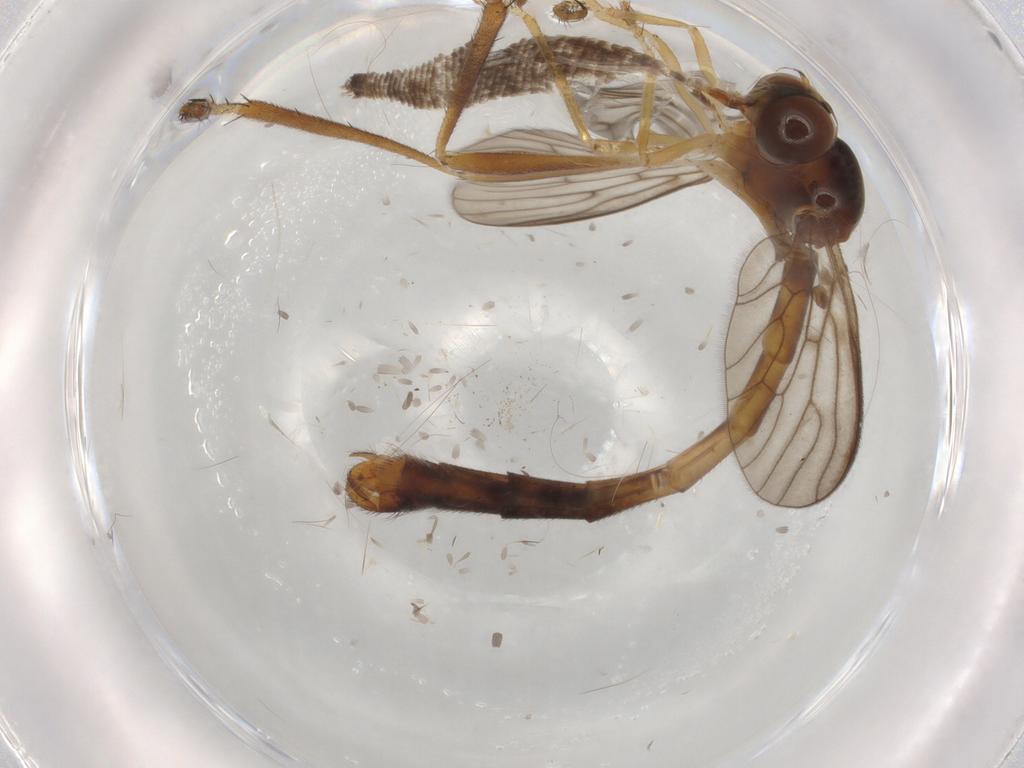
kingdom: Animalia
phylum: Arthropoda
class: Insecta
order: Diptera
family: Asilidae
